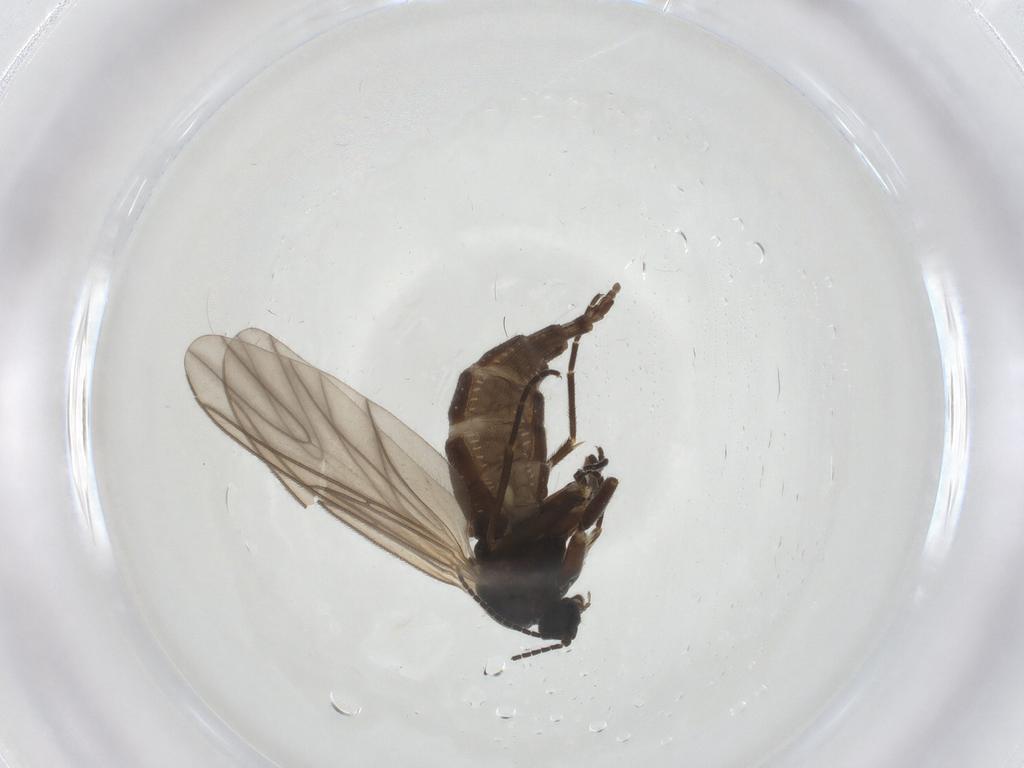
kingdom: Animalia
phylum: Arthropoda
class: Insecta
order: Diptera
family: Sciaridae
